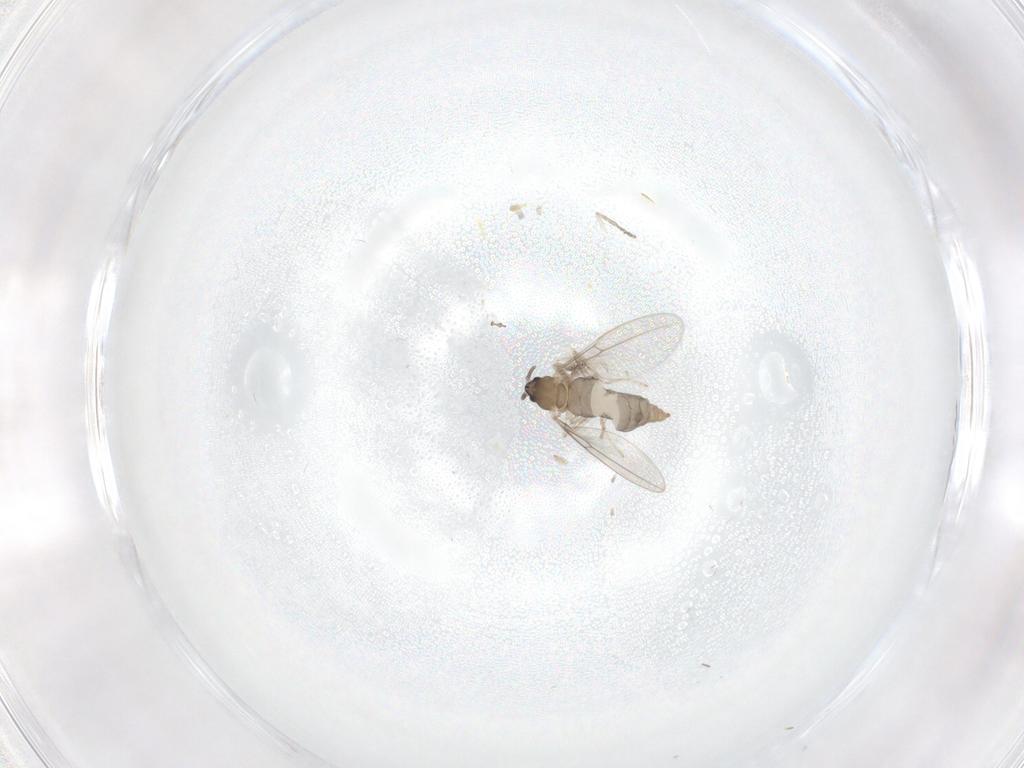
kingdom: Animalia
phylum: Arthropoda
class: Insecta
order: Diptera
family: Cecidomyiidae
